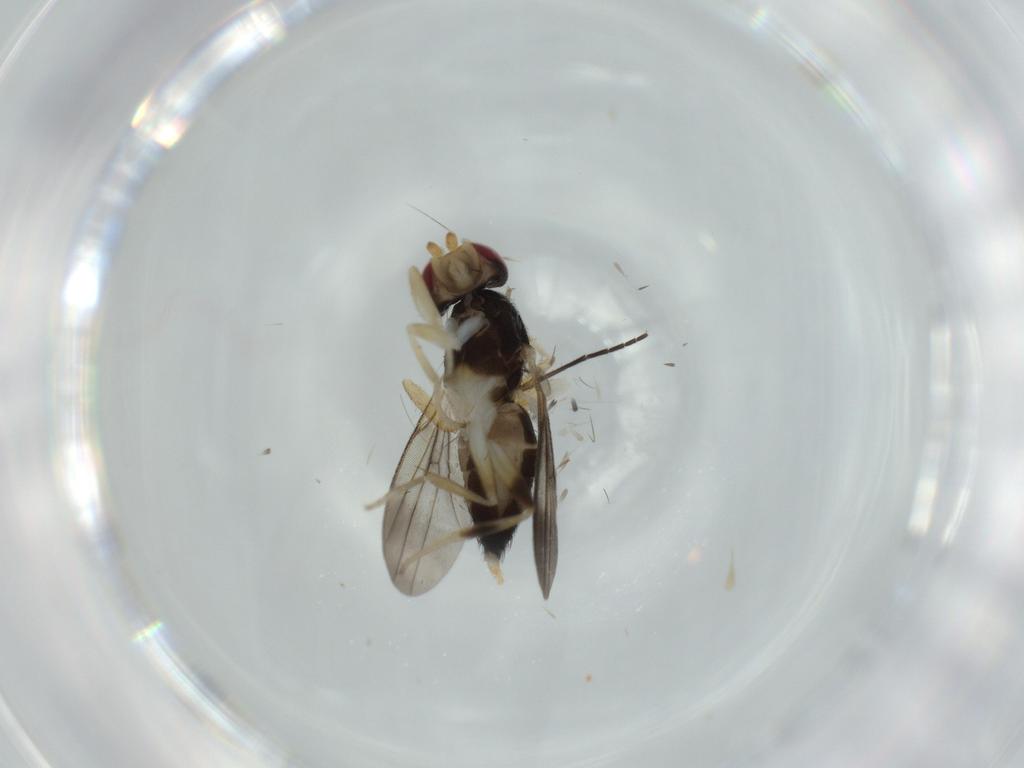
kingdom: Animalia
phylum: Arthropoda
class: Insecta
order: Diptera
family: Clusiidae
